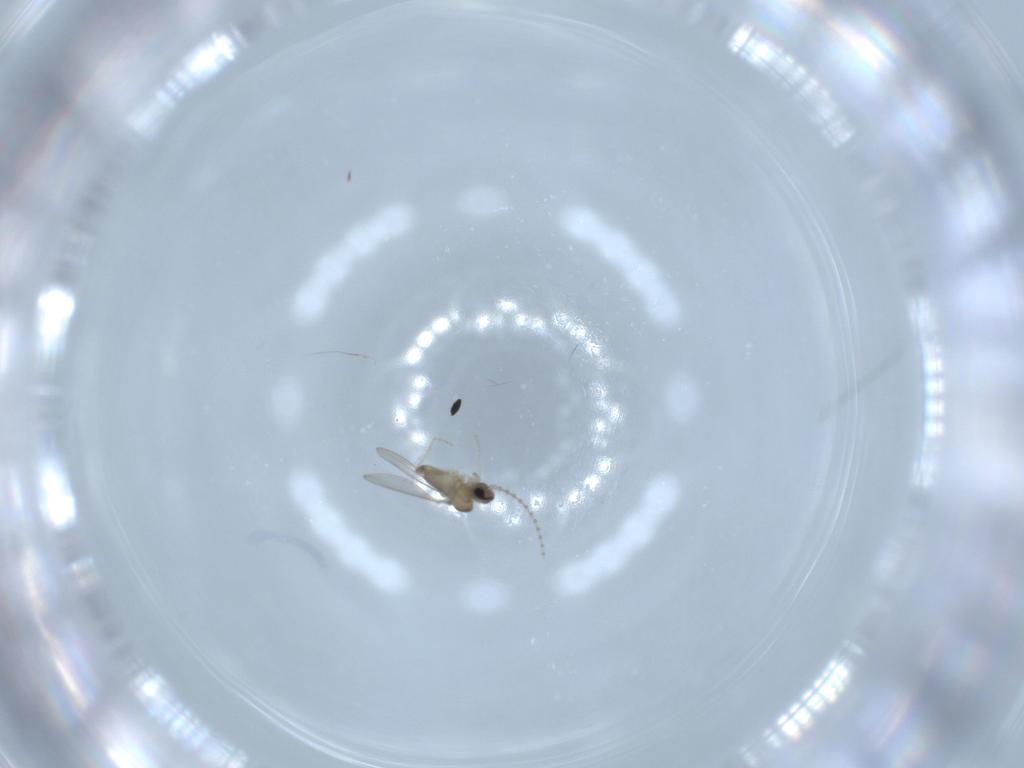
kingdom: Animalia
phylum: Arthropoda
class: Insecta
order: Diptera
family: Cecidomyiidae
